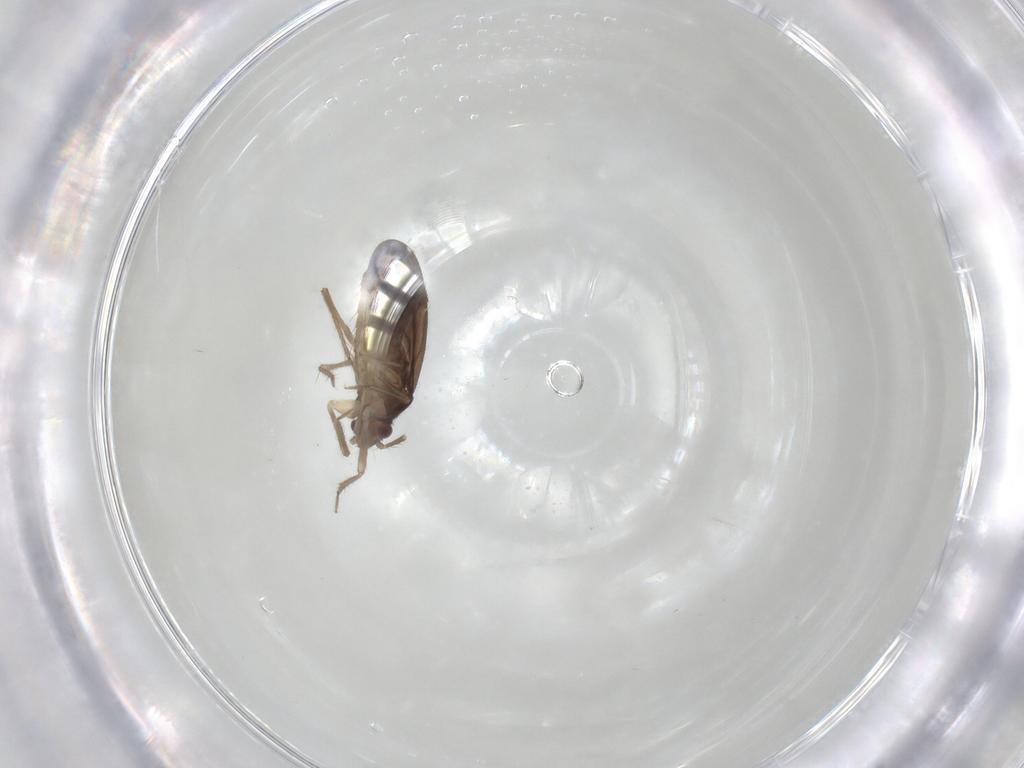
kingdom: Animalia
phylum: Arthropoda
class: Insecta
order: Hemiptera
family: Ceratocombidae
